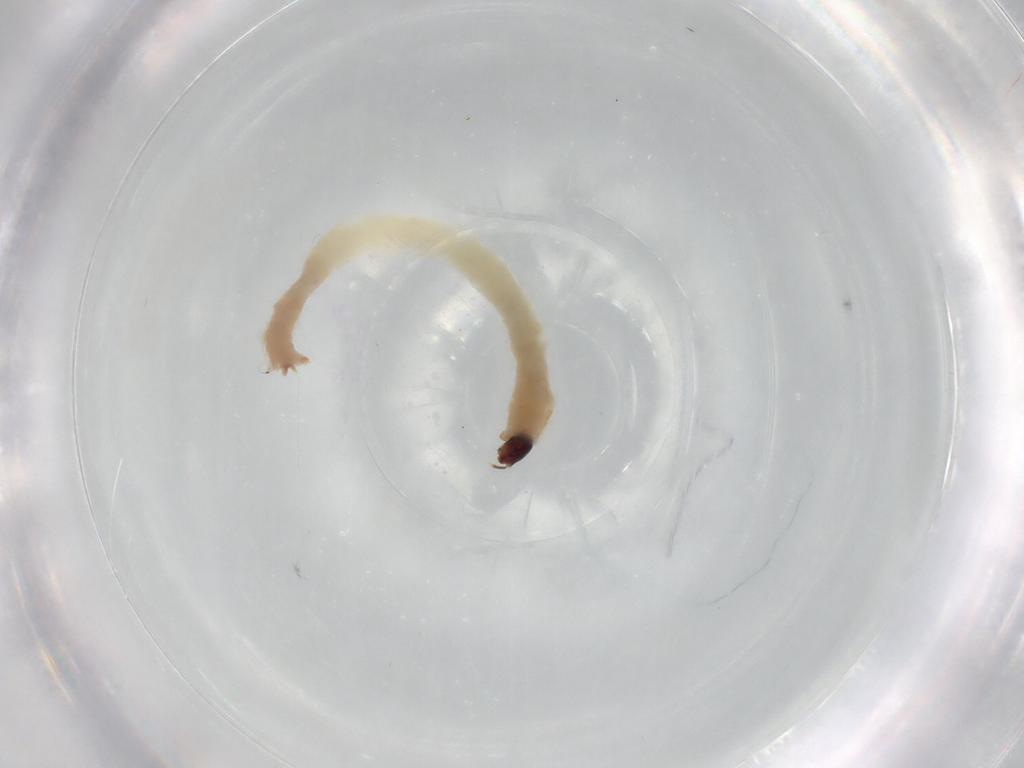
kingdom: Animalia
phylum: Arthropoda
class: Insecta
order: Diptera
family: Chironomidae
